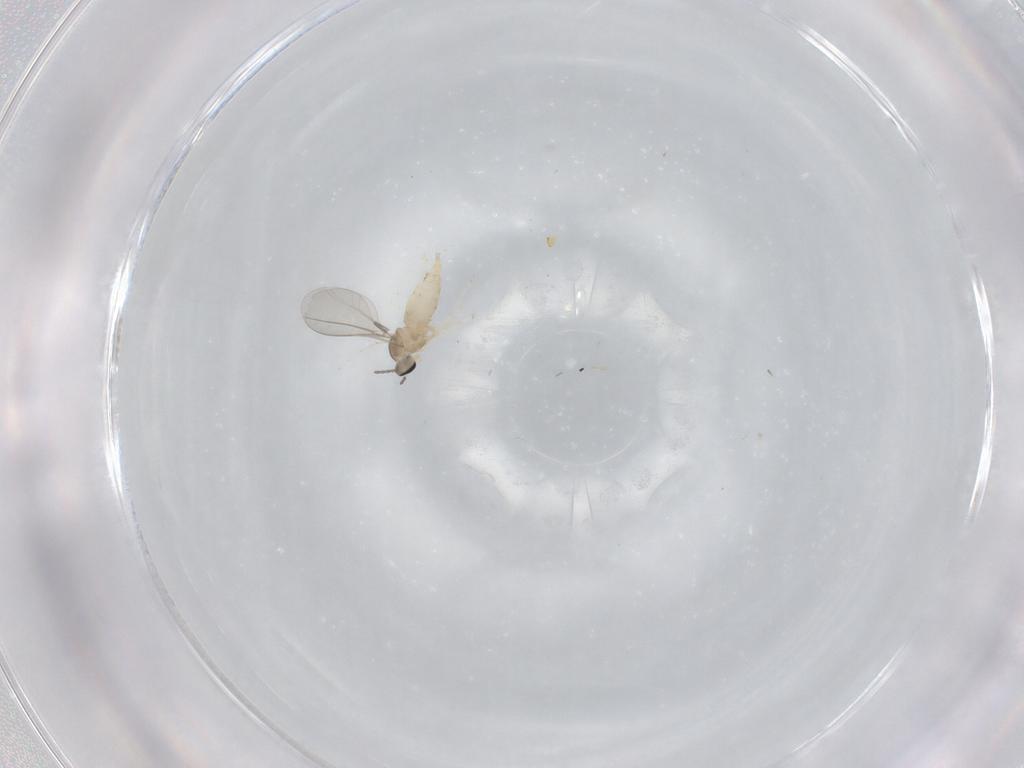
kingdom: Animalia
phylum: Arthropoda
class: Insecta
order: Diptera
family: Cecidomyiidae
